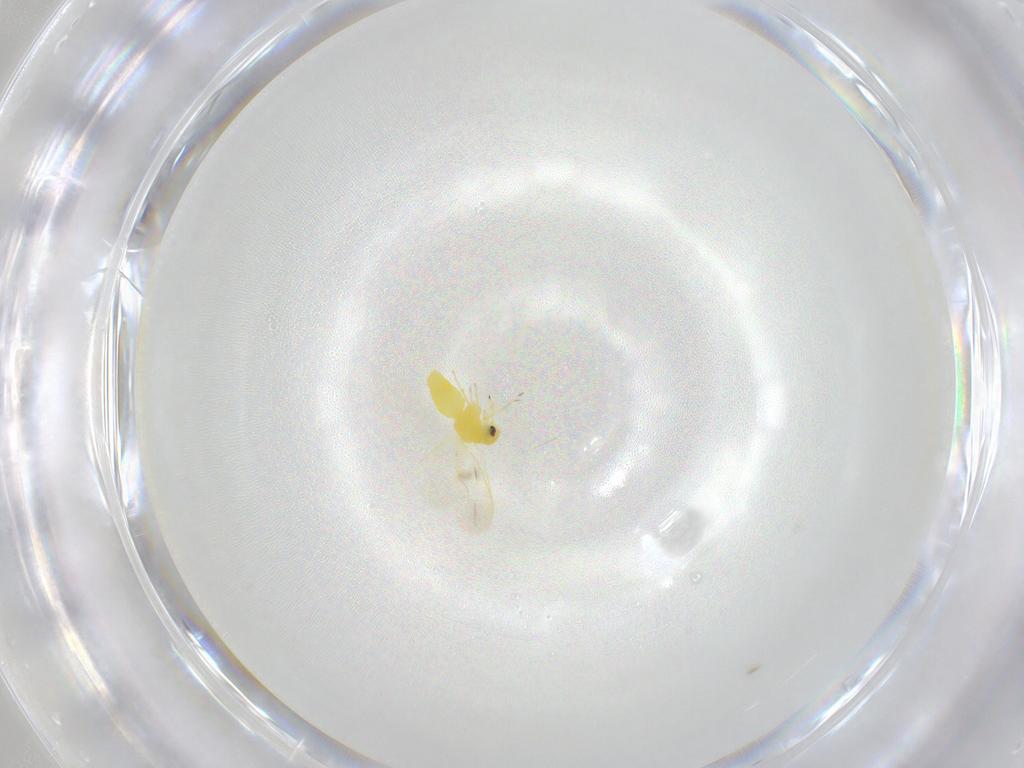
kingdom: Animalia
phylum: Arthropoda
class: Insecta
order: Hemiptera
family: Aleyrodidae
